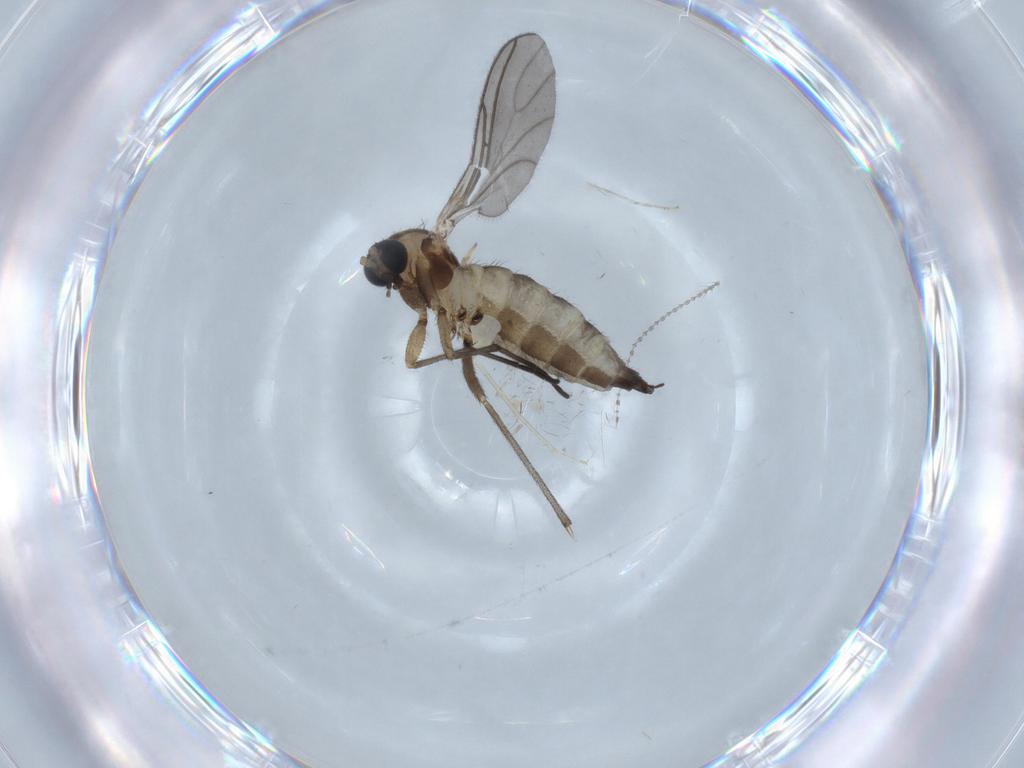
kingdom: Animalia
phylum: Arthropoda
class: Insecta
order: Diptera
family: Sciaridae
